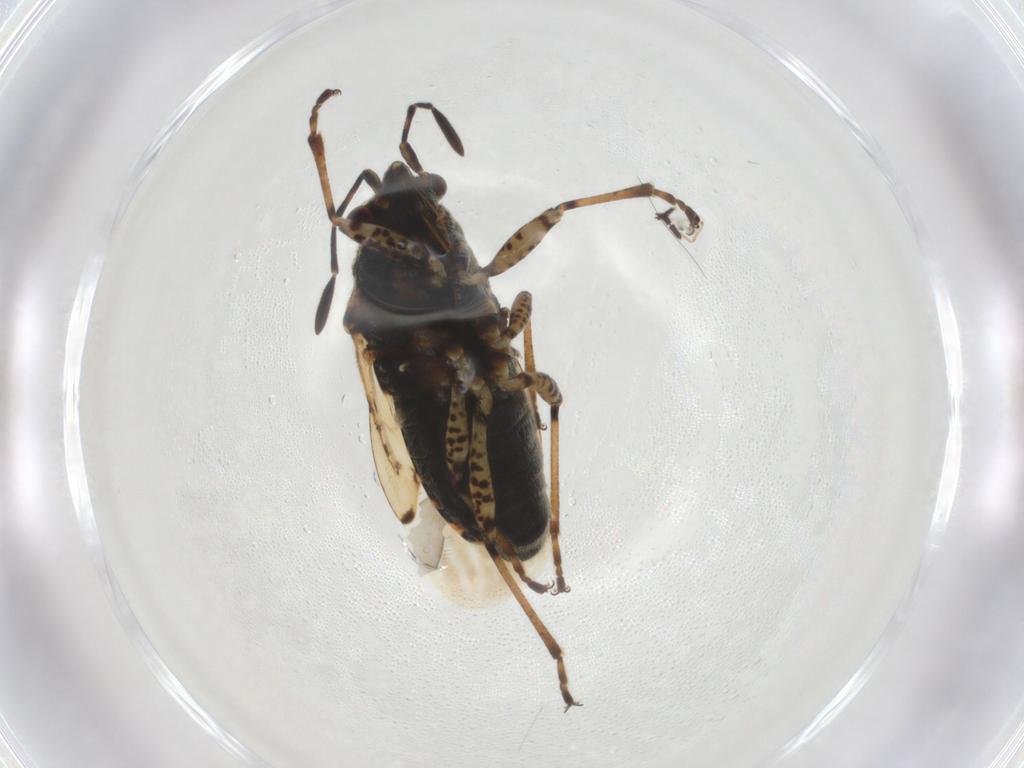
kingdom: Animalia
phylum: Arthropoda
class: Insecta
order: Hemiptera
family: Lygaeidae
